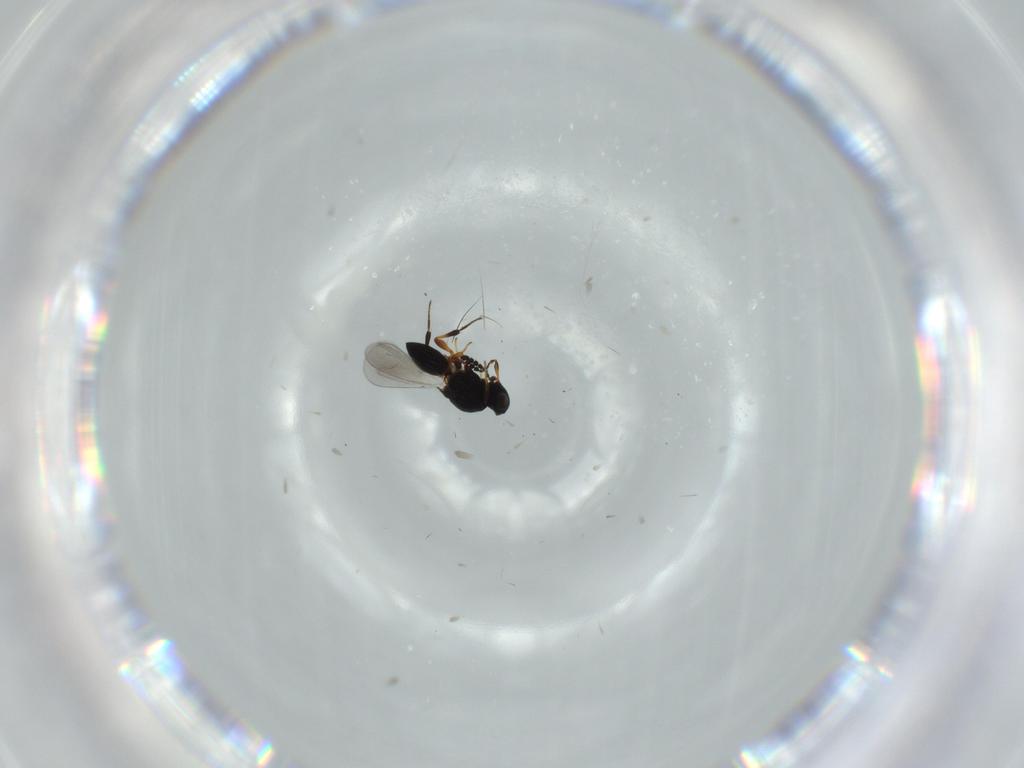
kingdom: Animalia
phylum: Arthropoda
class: Insecta
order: Hymenoptera
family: Platygastridae
